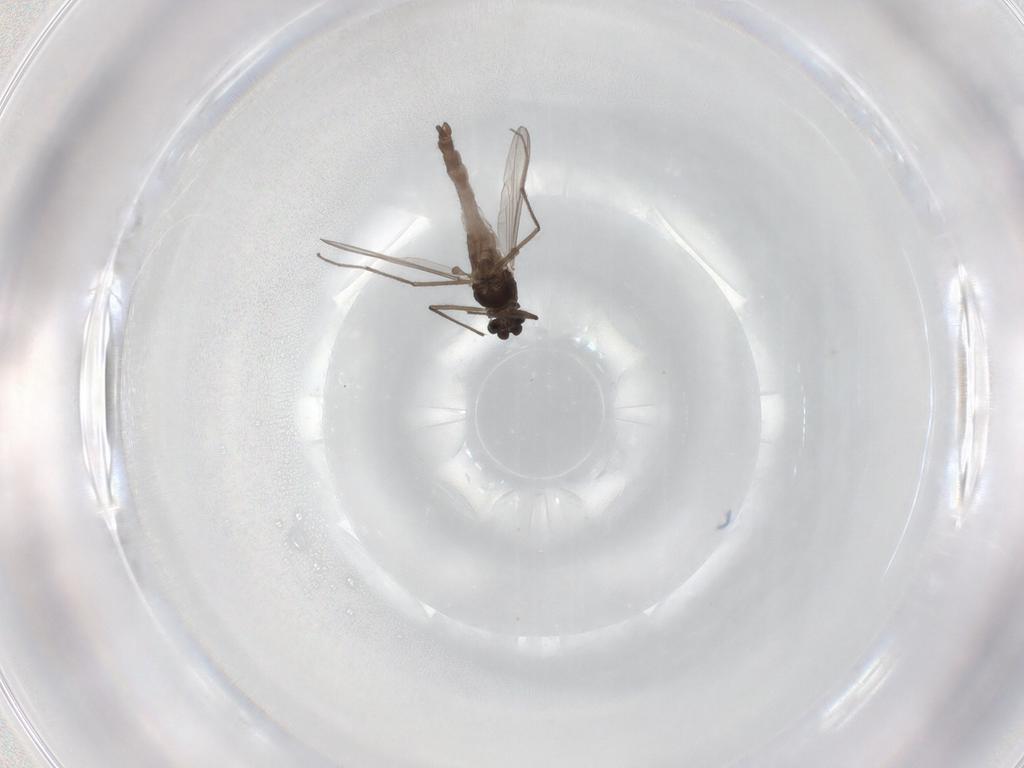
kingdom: Animalia
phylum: Arthropoda
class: Insecta
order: Diptera
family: Chironomidae
